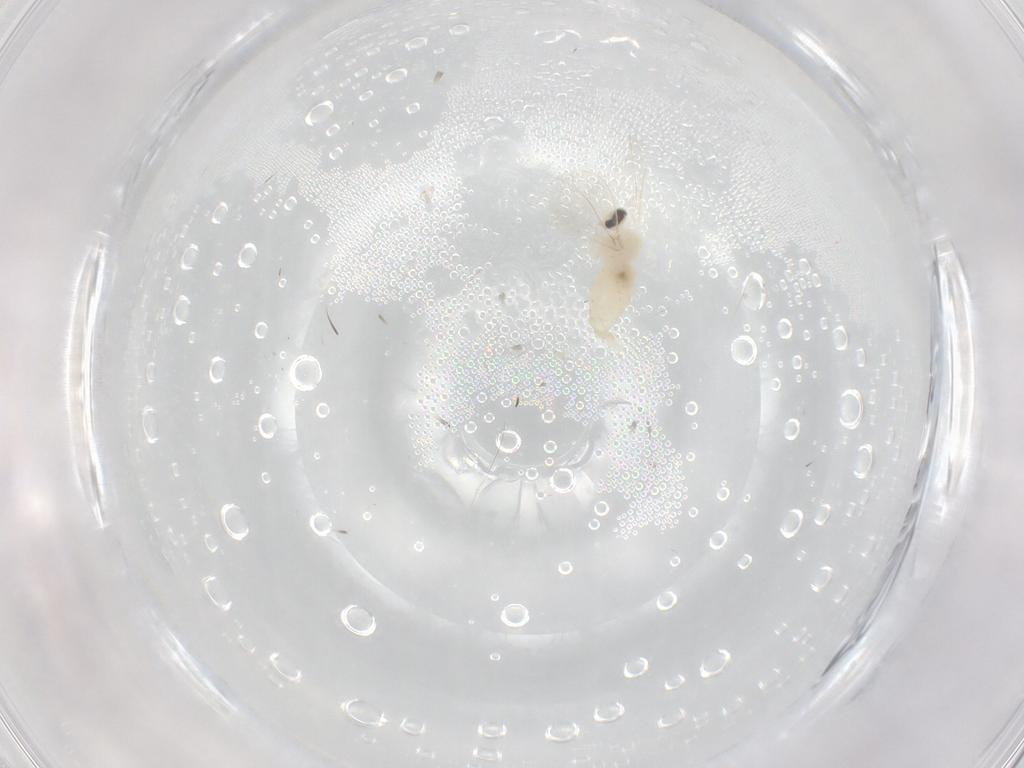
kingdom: Animalia
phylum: Arthropoda
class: Insecta
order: Diptera
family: Cecidomyiidae
